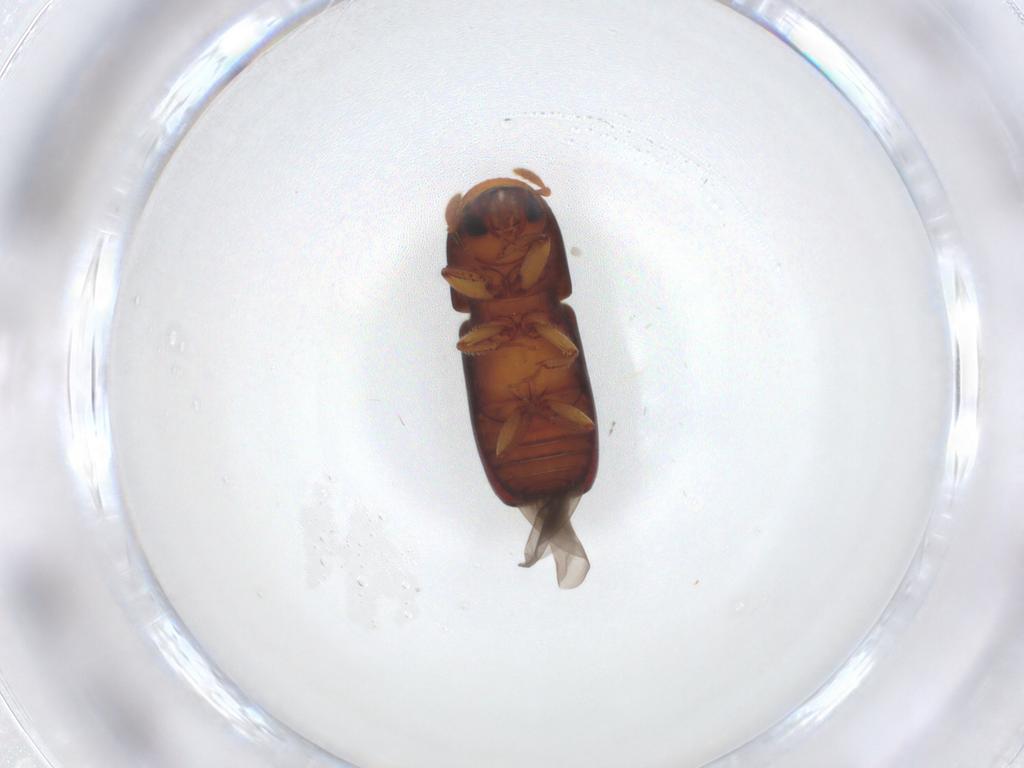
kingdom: Animalia
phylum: Arthropoda
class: Insecta
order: Coleoptera
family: Curculionidae
